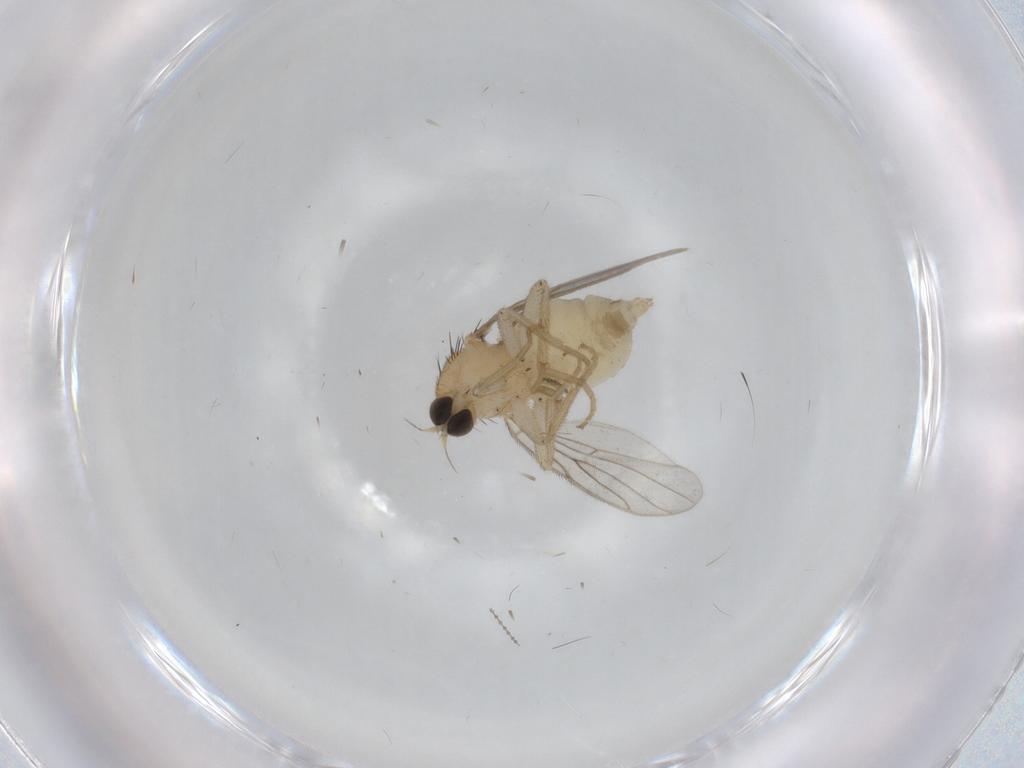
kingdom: Animalia
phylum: Arthropoda
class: Insecta
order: Diptera
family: Hybotidae
